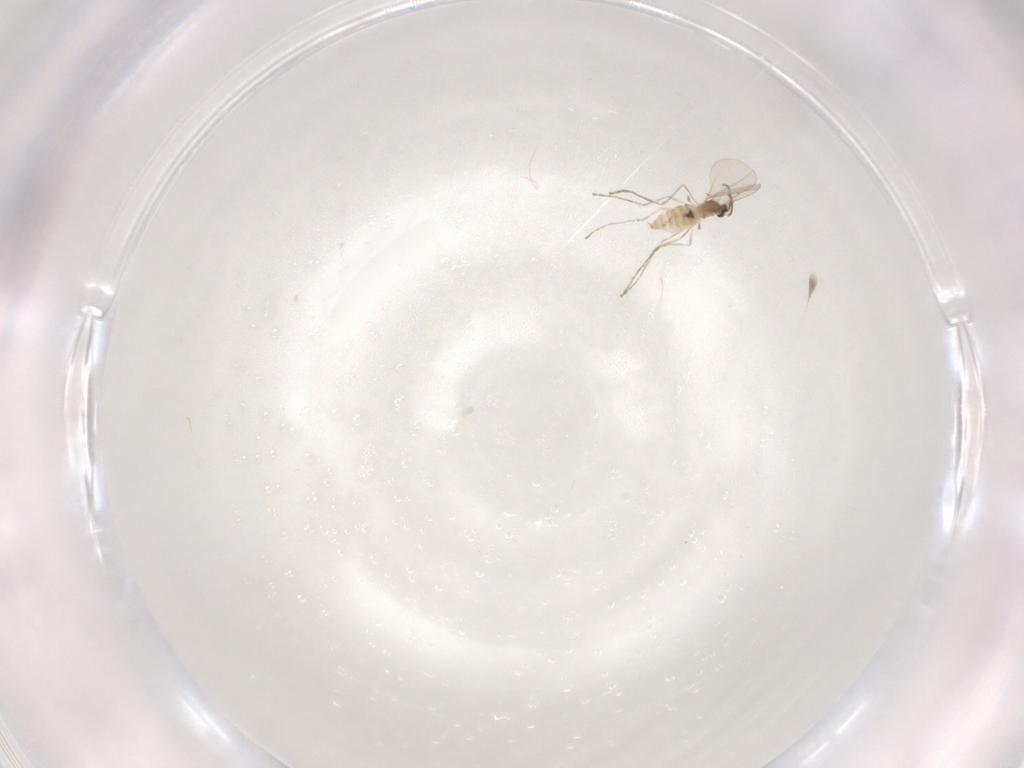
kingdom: Animalia
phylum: Arthropoda
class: Insecta
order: Diptera
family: Cecidomyiidae
